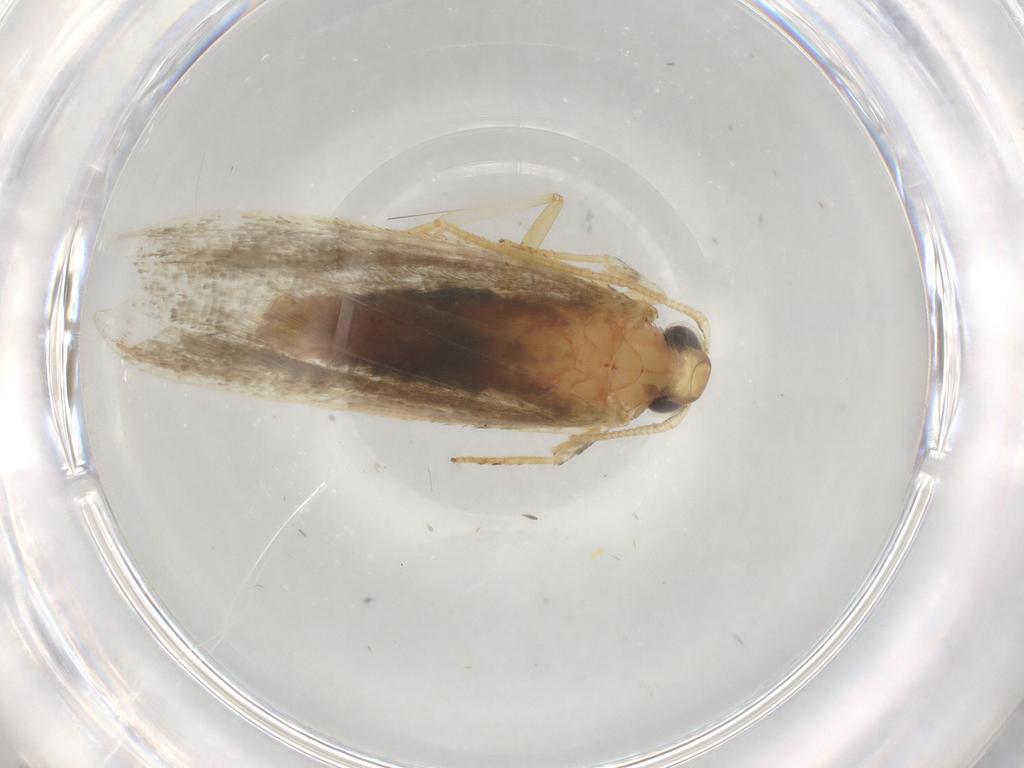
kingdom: Animalia
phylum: Arthropoda
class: Insecta
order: Lepidoptera
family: Lecithoceridae
